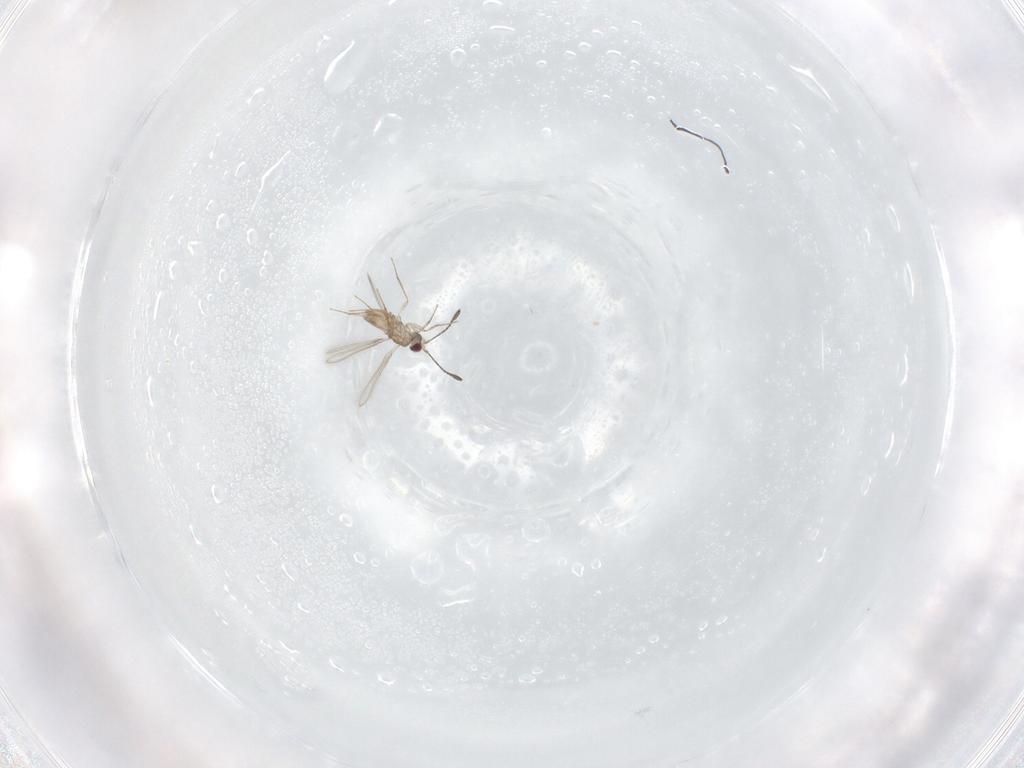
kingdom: Animalia
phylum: Arthropoda
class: Insecta
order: Hymenoptera
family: Mymaridae
